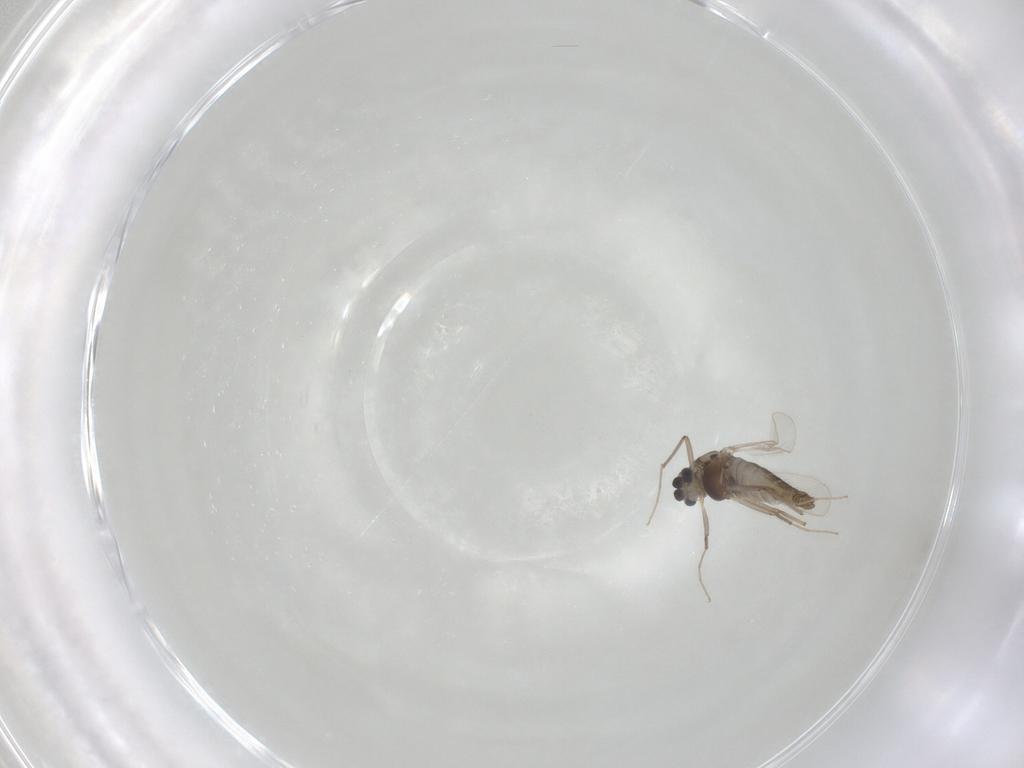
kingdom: Animalia
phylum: Arthropoda
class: Insecta
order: Diptera
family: Chironomidae
